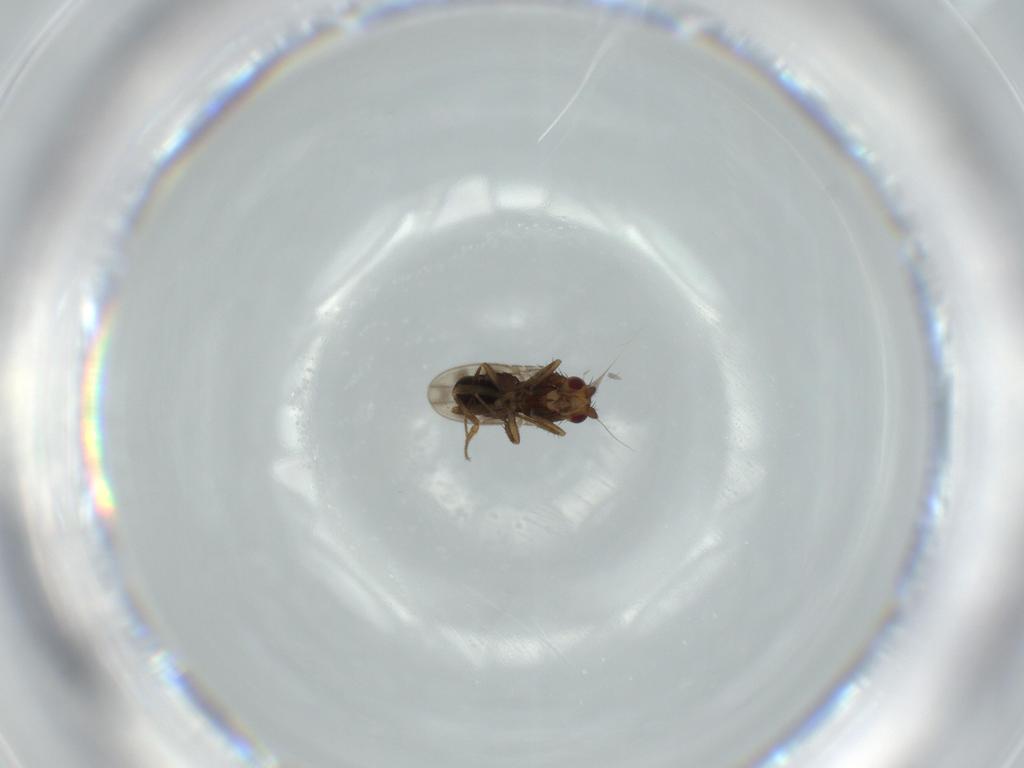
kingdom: Animalia
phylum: Arthropoda
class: Insecta
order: Diptera
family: Sphaeroceridae
